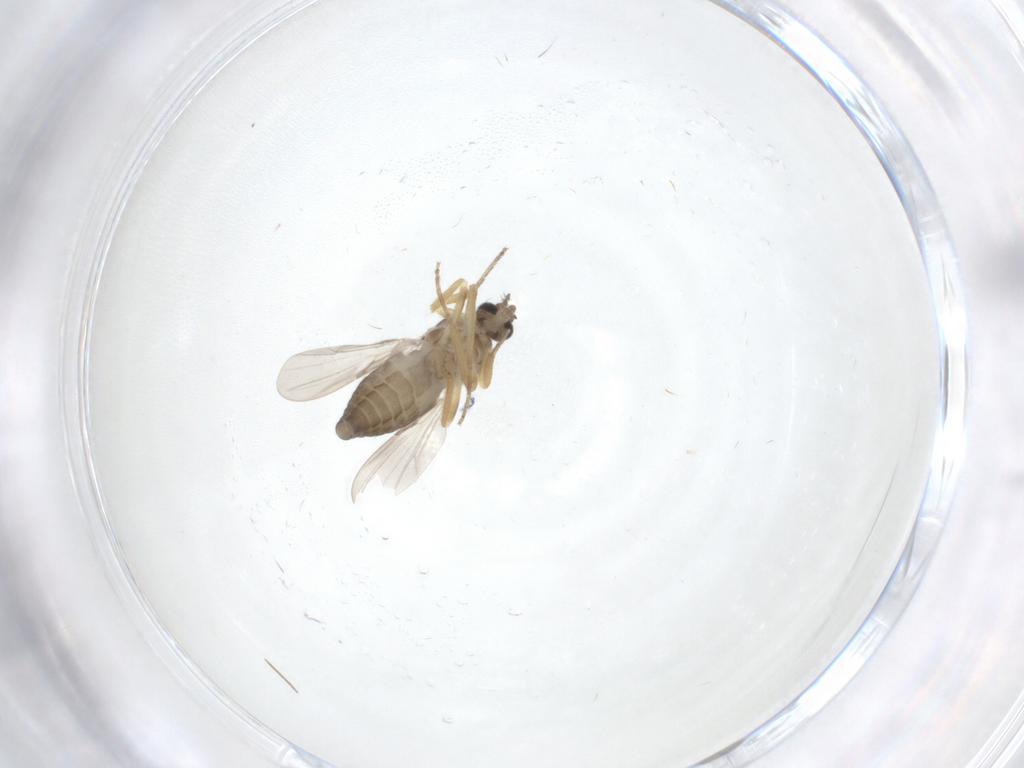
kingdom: Animalia
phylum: Arthropoda
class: Insecta
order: Diptera
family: Ceratopogonidae
